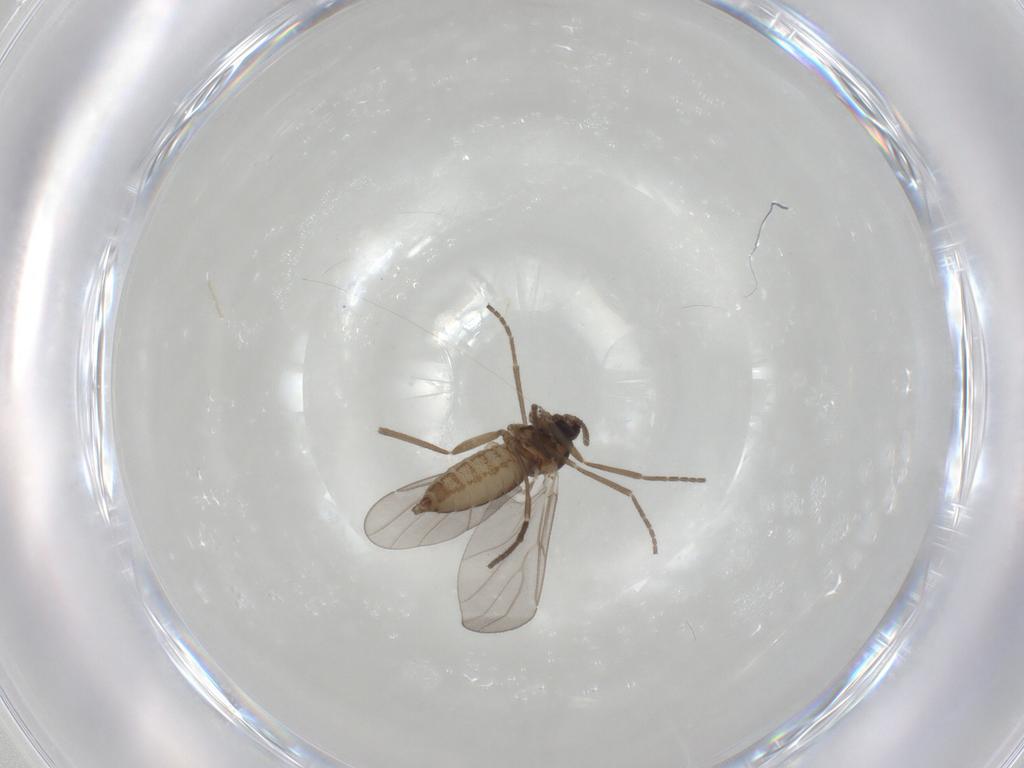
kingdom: Animalia
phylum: Arthropoda
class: Insecta
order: Diptera
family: Cecidomyiidae
